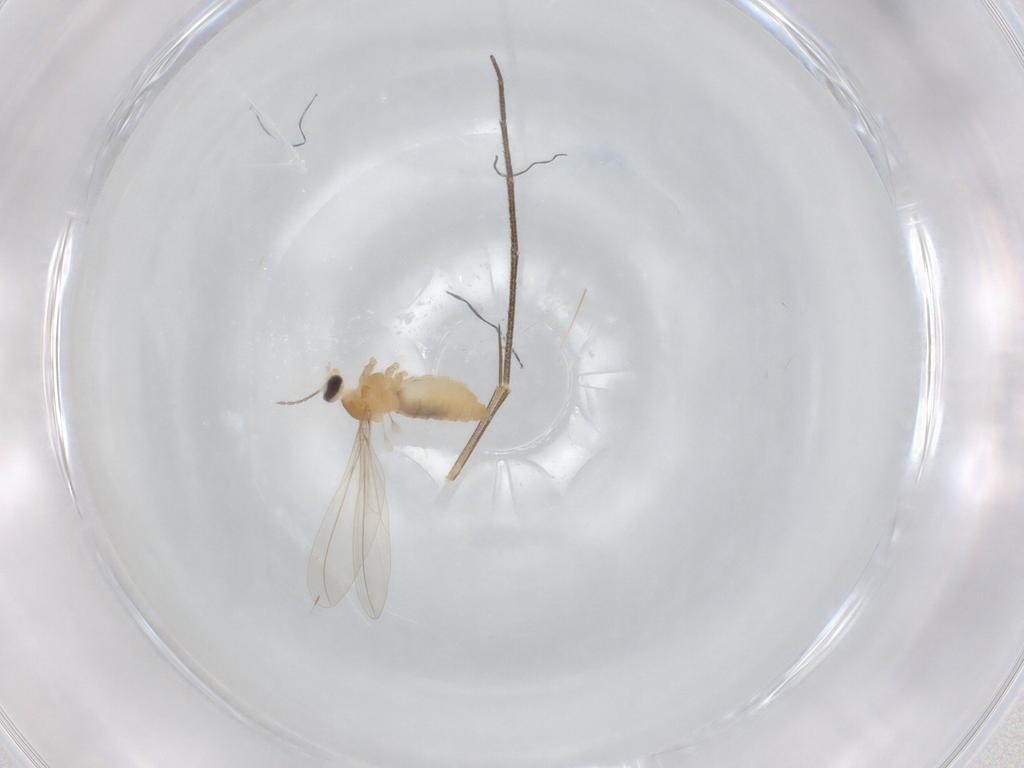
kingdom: Animalia
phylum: Arthropoda
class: Insecta
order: Diptera
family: Lauxaniidae
